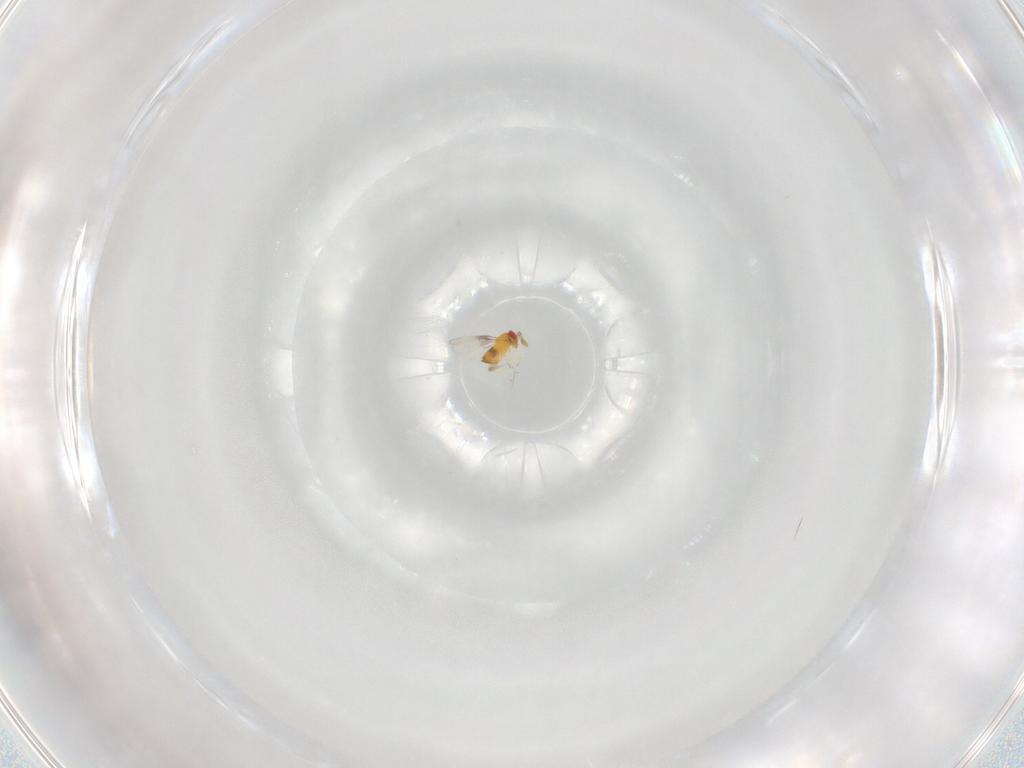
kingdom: Animalia
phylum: Arthropoda
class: Insecta
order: Hymenoptera
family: Trichogrammatidae
